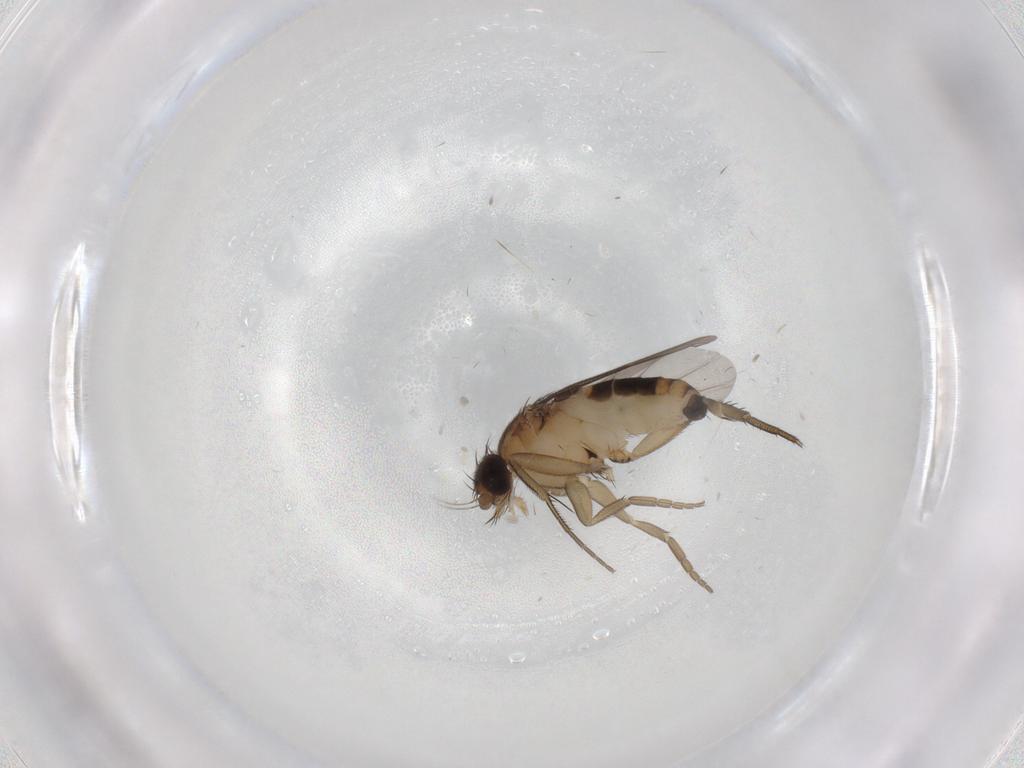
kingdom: Animalia
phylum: Arthropoda
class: Insecta
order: Diptera
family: Phoridae
